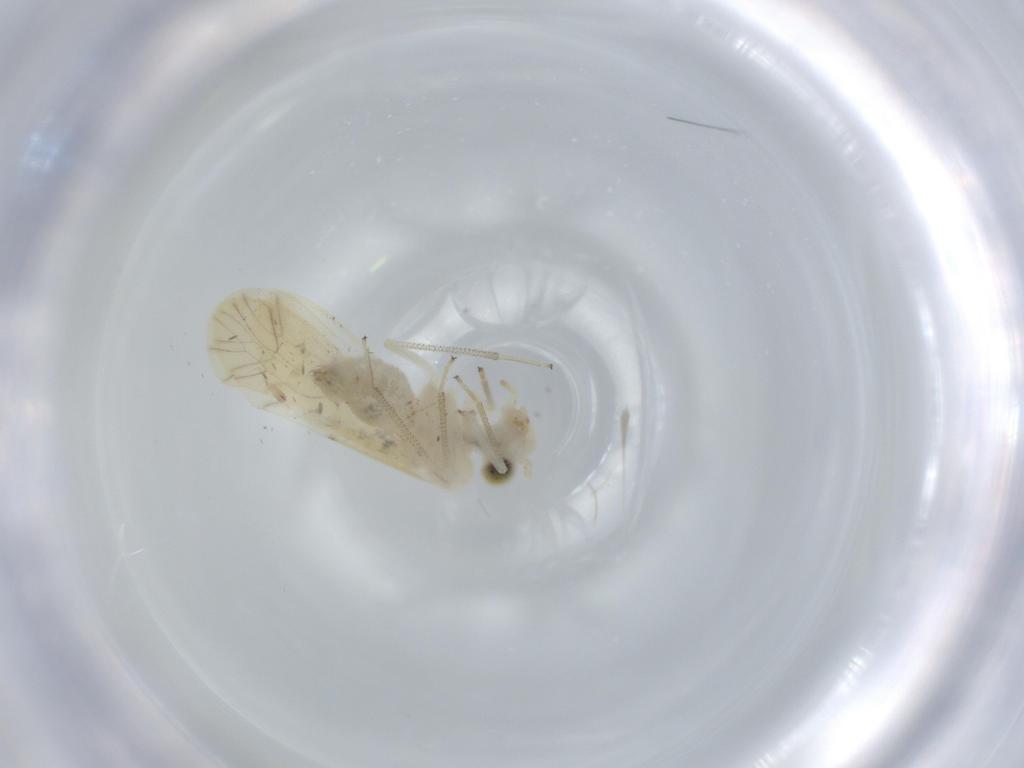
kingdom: Animalia
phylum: Arthropoda
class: Insecta
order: Psocodea
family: Caeciliusidae
